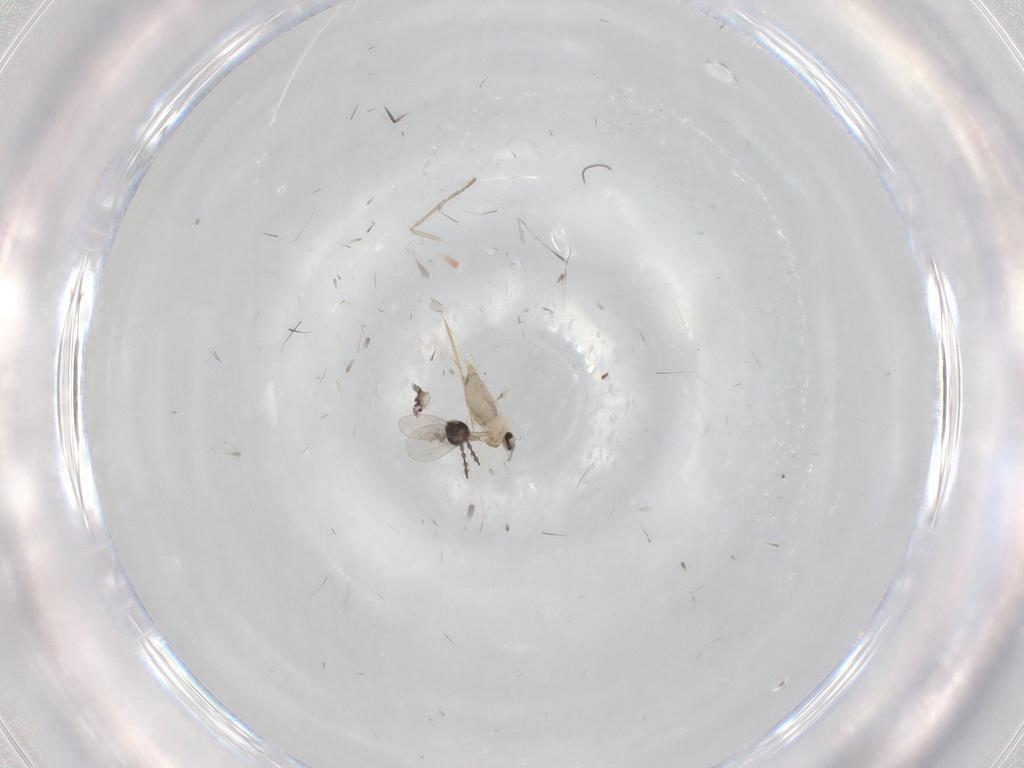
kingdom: Animalia
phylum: Arthropoda
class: Insecta
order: Diptera
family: Psychodidae
